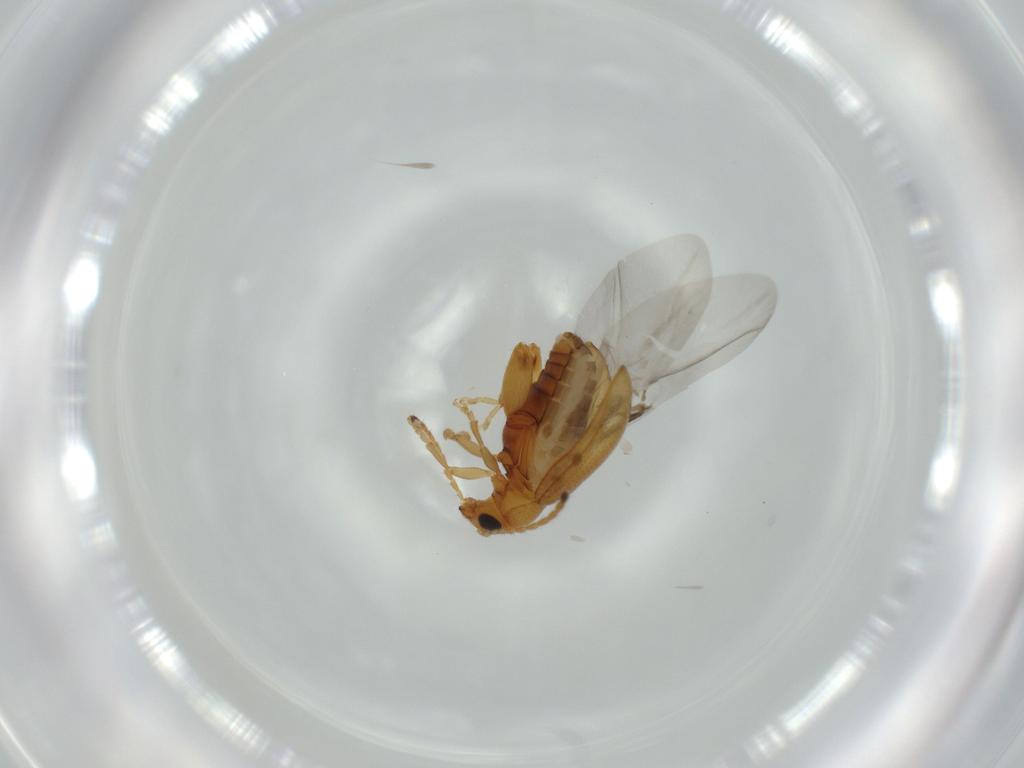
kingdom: Animalia
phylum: Arthropoda
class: Insecta
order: Coleoptera
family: Chrysomelidae
